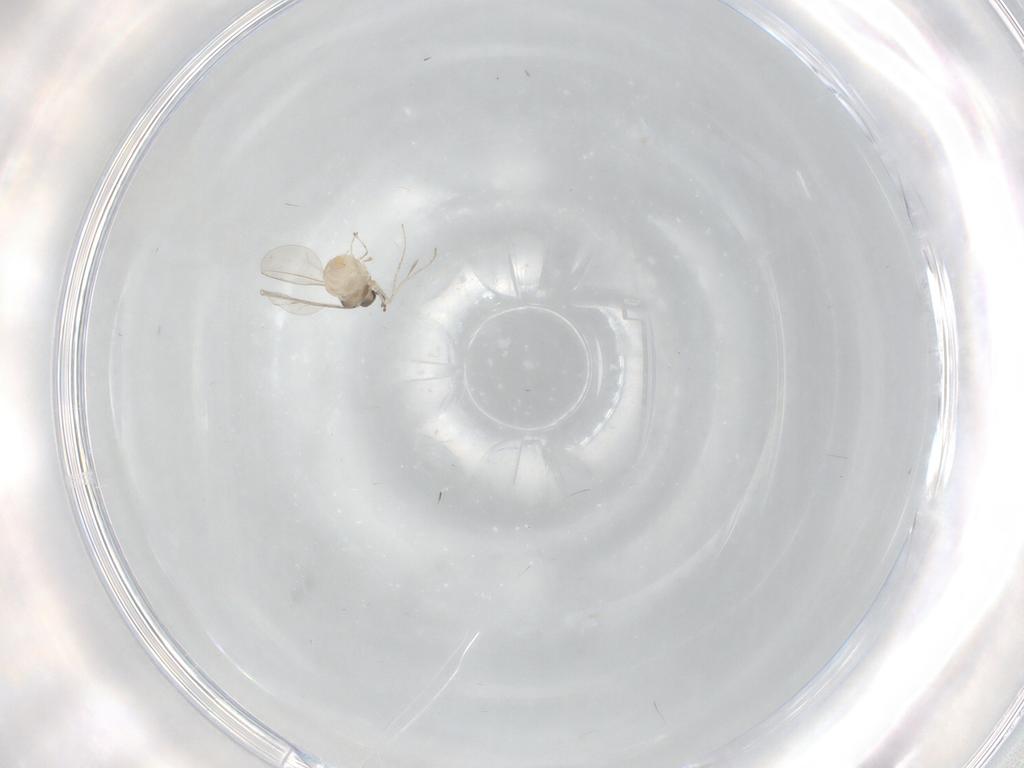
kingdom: Animalia
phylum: Arthropoda
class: Insecta
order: Diptera
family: Cecidomyiidae
